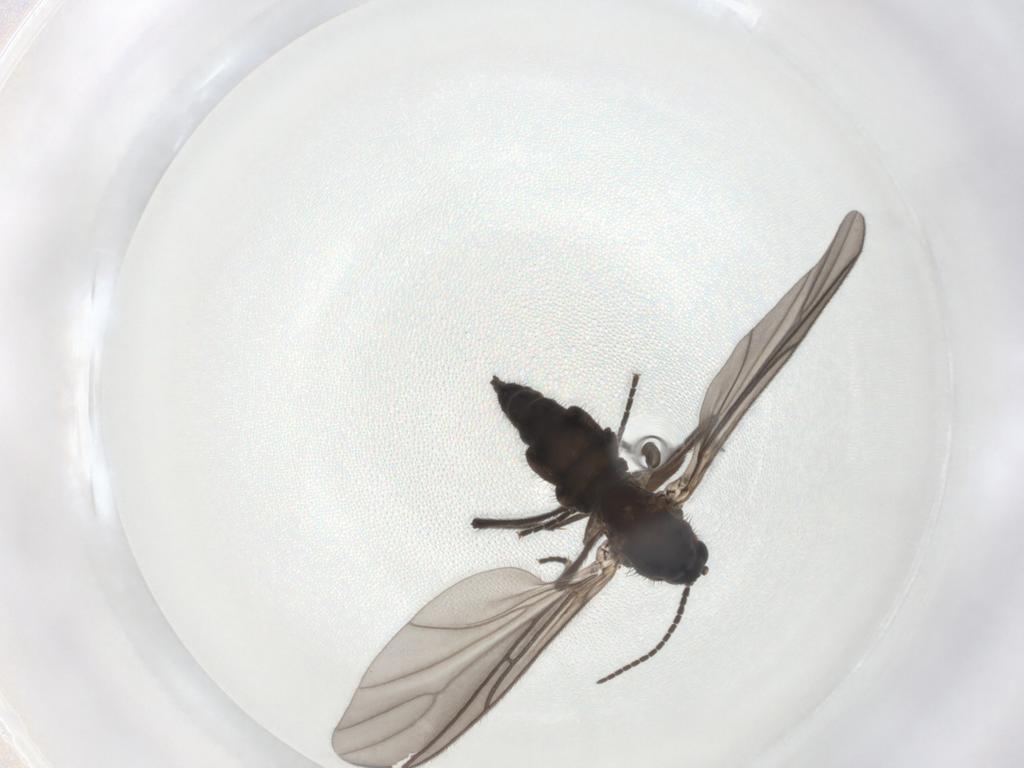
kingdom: Animalia
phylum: Arthropoda
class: Insecta
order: Diptera
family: Sciaridae
